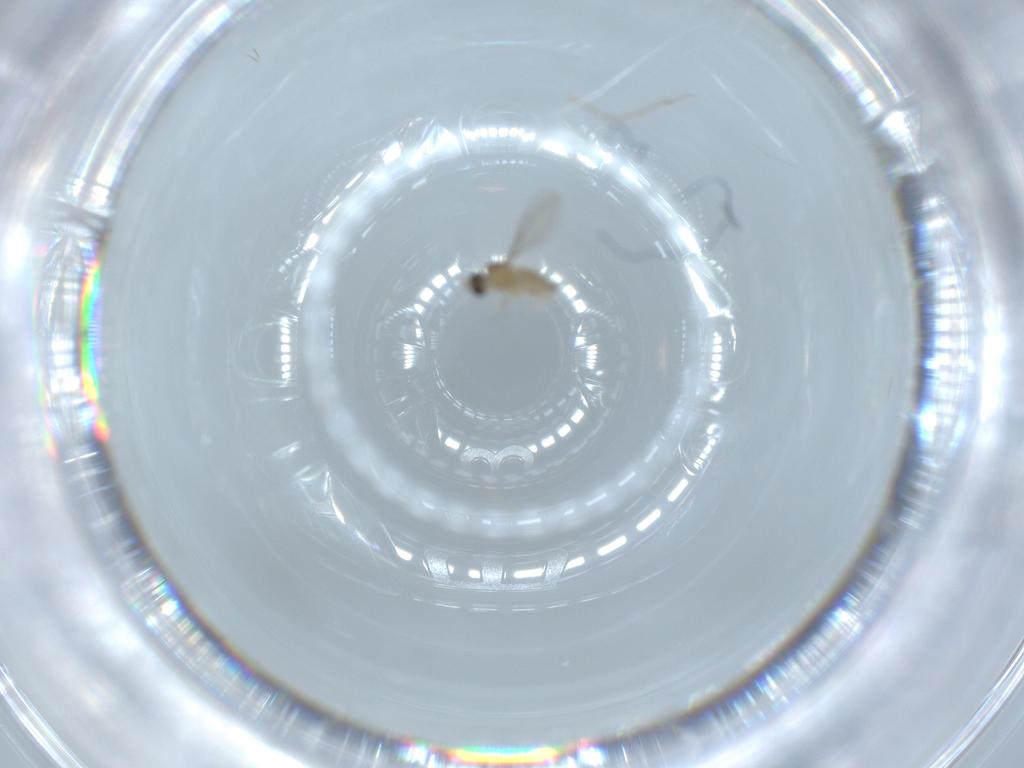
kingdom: Animalia
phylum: Arthropoda
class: Insecta
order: Diptera
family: Cecidomyiidae
